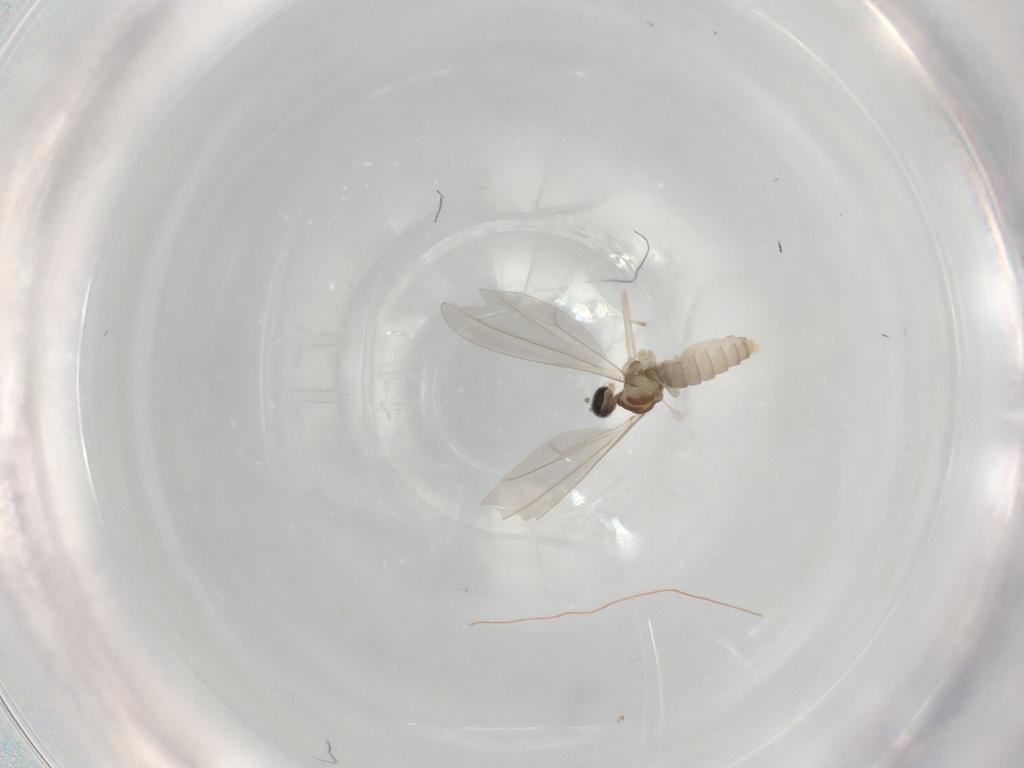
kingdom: Animalia
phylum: Arthropoda
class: Insecta
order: Diptera
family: Cecidomyiidae
